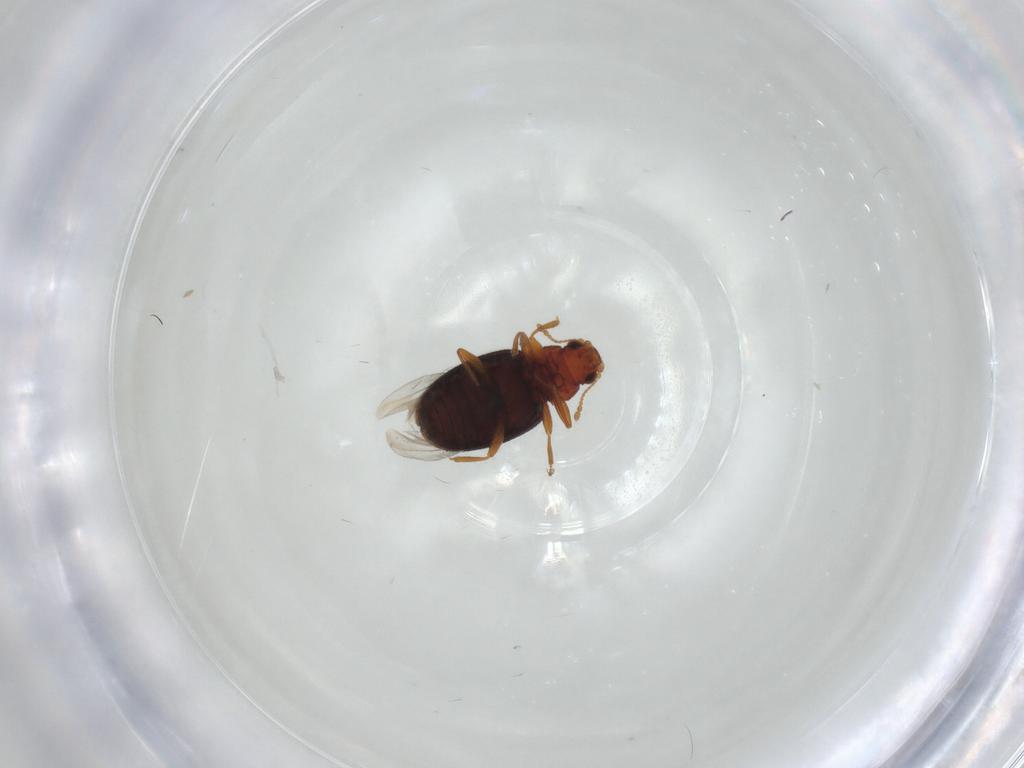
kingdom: Animalia
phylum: Arthropoda
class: Insecta
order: Coleoptera
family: Latridiidae
